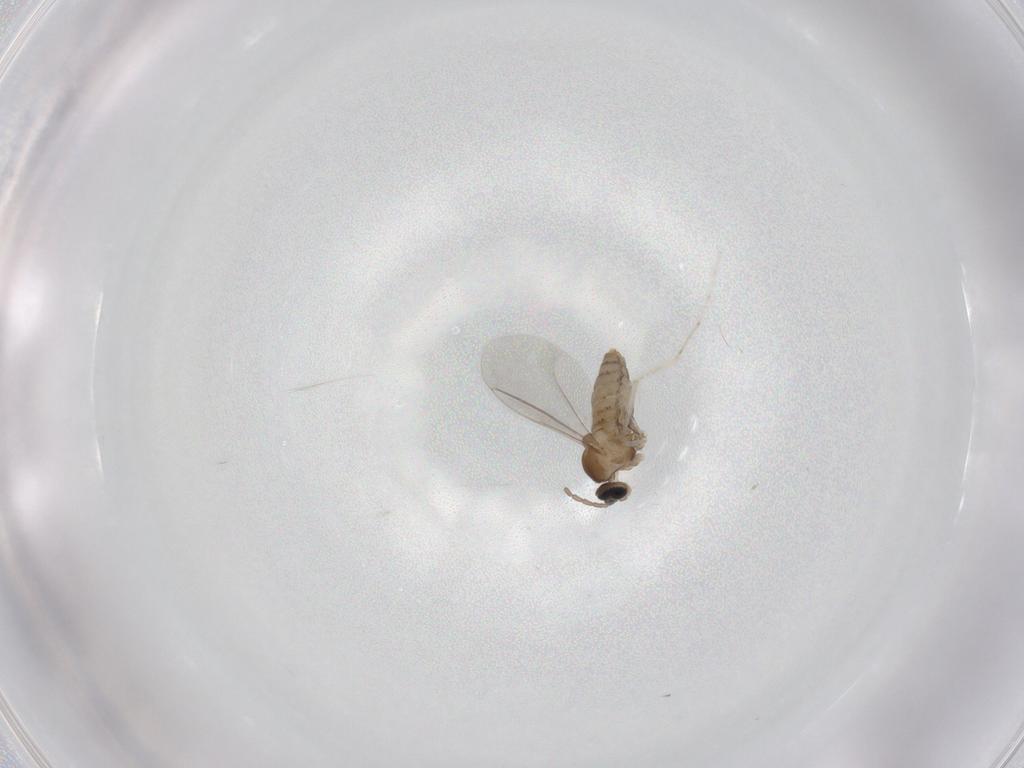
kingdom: Animalia
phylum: Arthropoda
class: Insecta
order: Diptera
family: Cecidomyiidae
